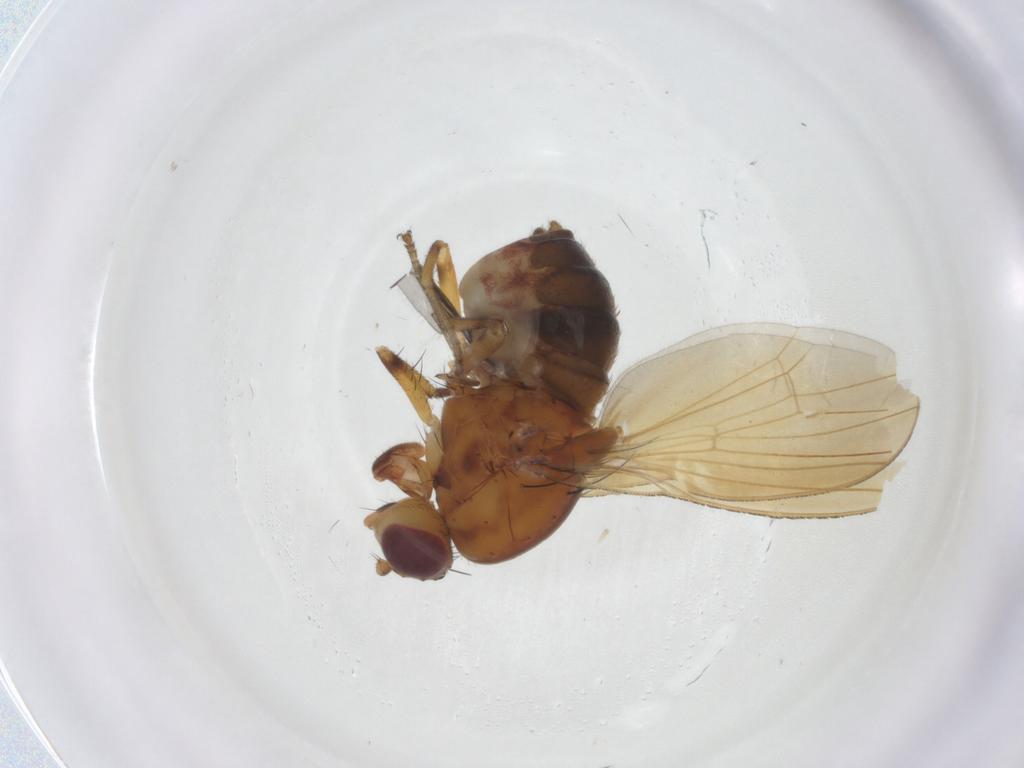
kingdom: Animalia
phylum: Arthropoda
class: Insecta
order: Diptera
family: Lauxaniidae
